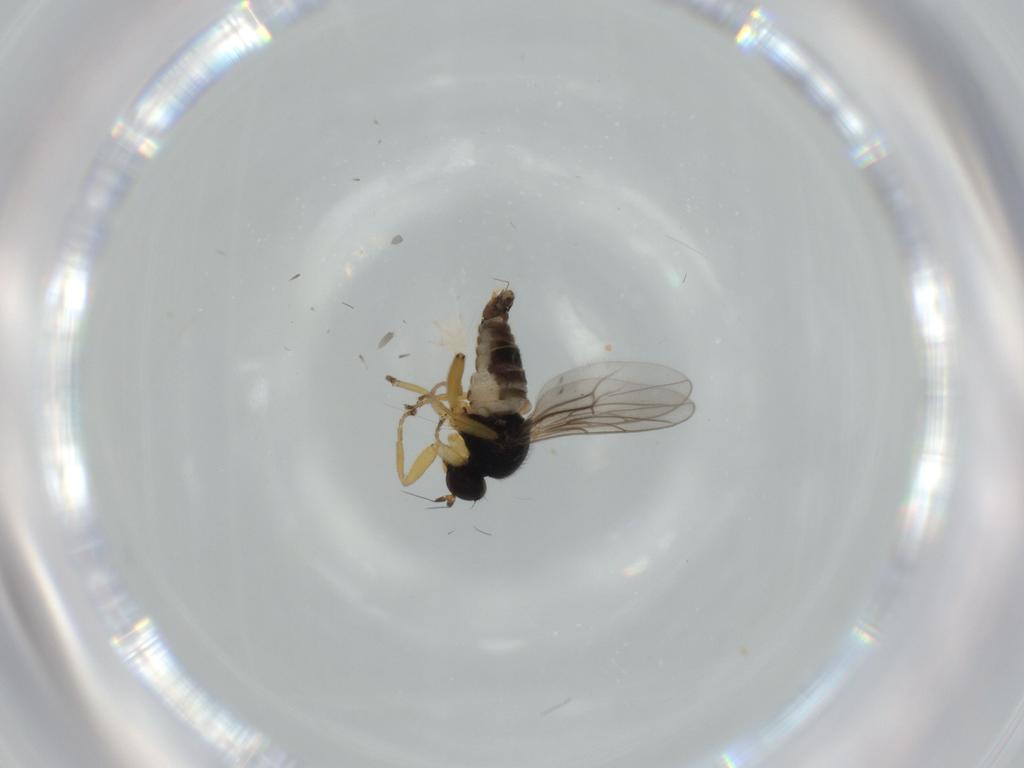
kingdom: Animalia
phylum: Arthropoda
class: Insecta
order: Diptera
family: Hybotidae
